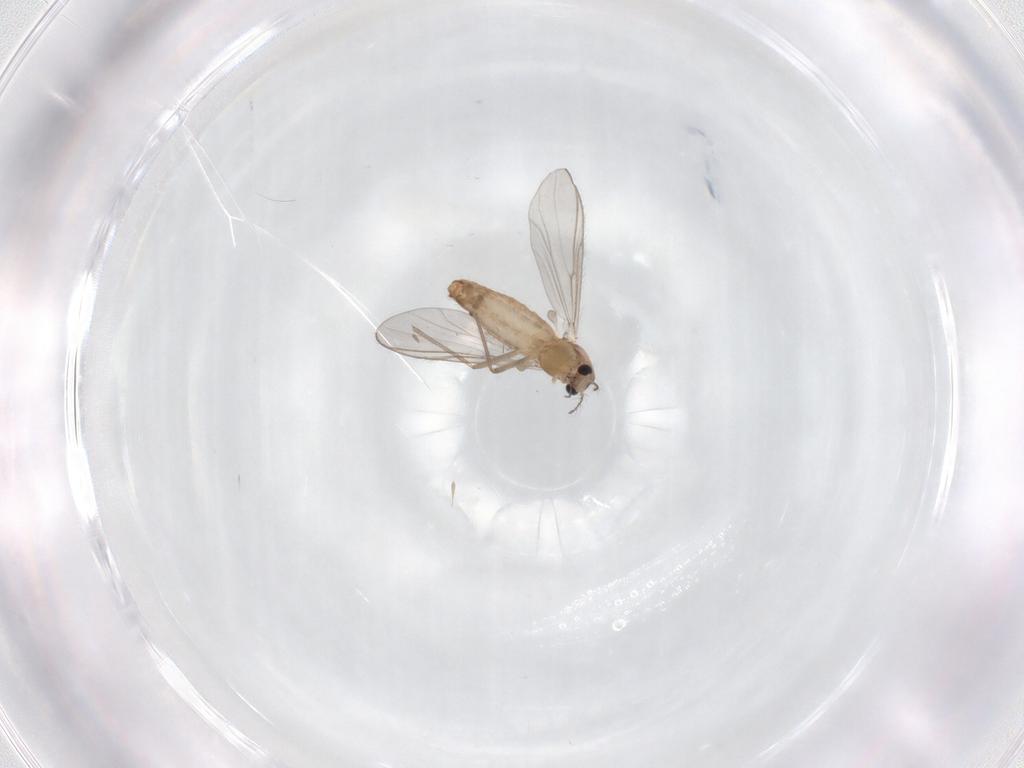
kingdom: Animalia
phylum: Arthropoda
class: Insecta
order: Diptera
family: Chironomidae
